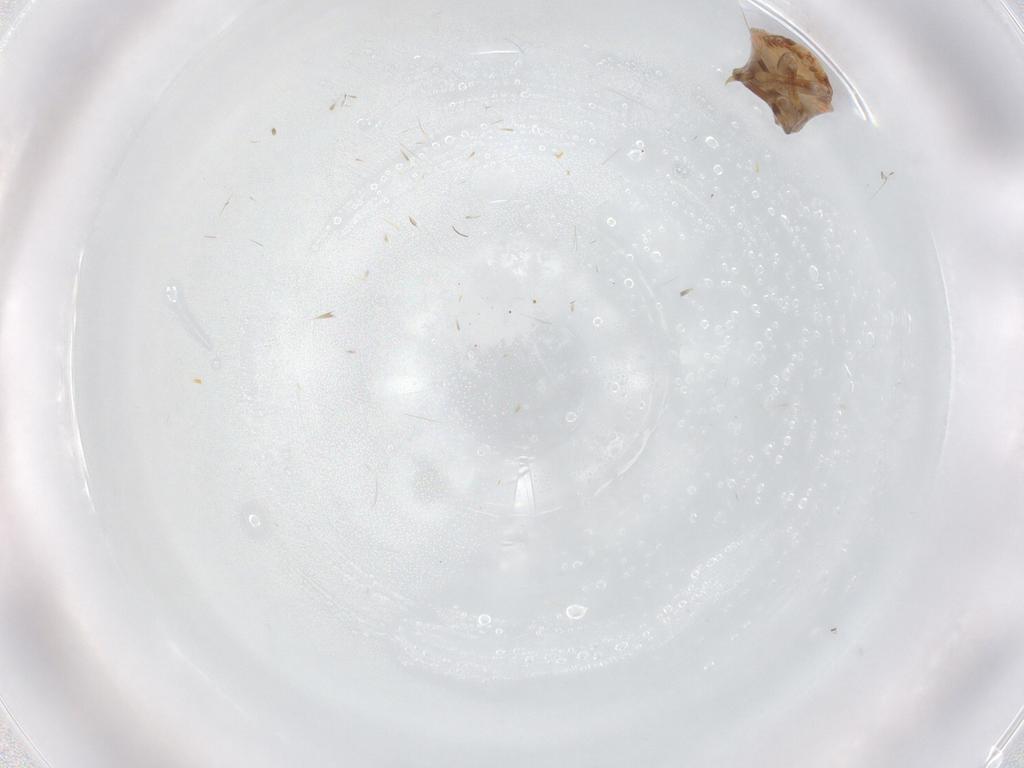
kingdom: Animalia
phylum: Arthropoda
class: Insecta
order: Hemiptera
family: Flatidae
